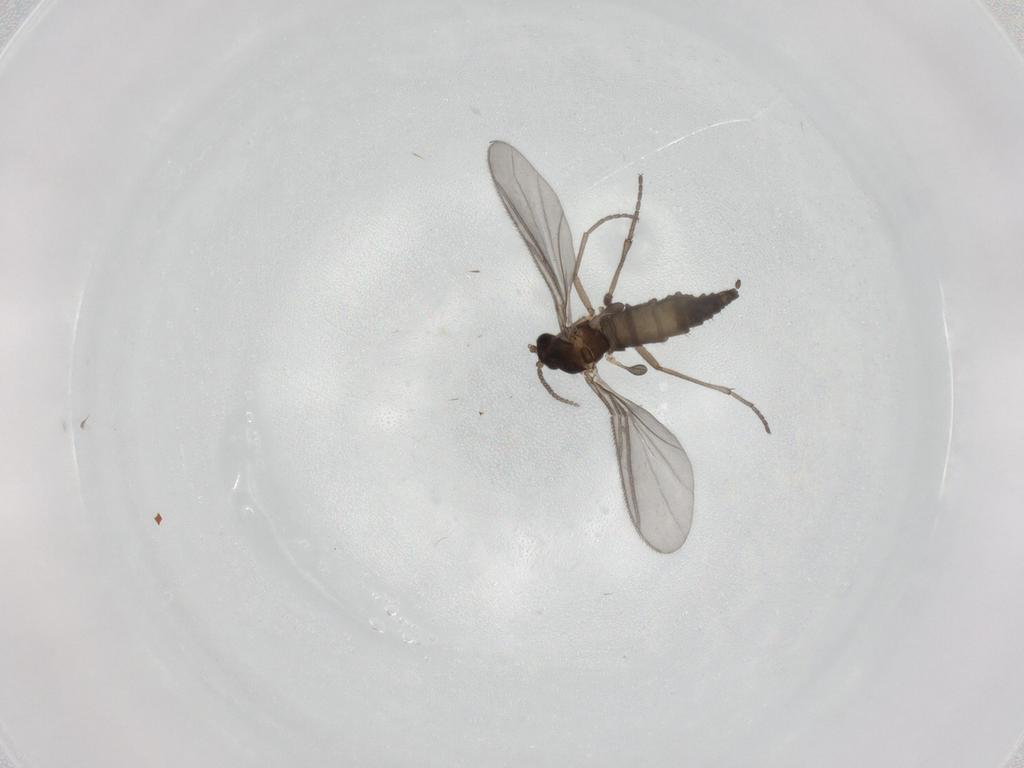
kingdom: Animalia
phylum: Arthropoda
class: Insecta
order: Diptera
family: Sciaridae
